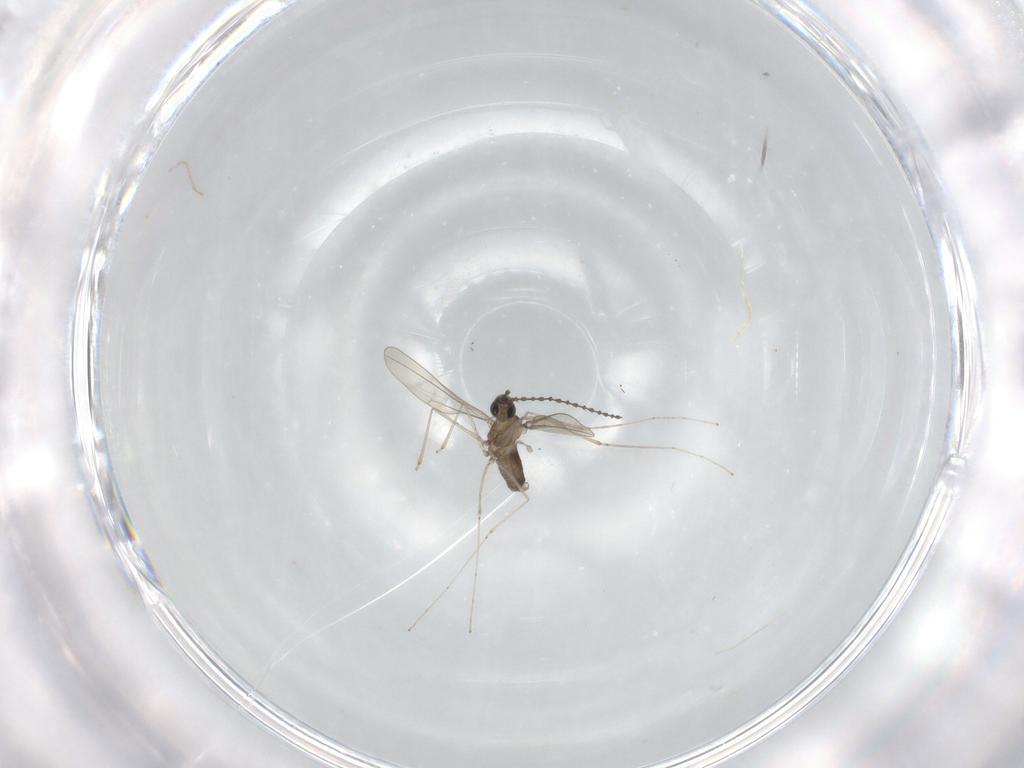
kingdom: Animalia
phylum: Arthropoda
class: Insecta
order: Diptera
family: Cecidomyiidae
